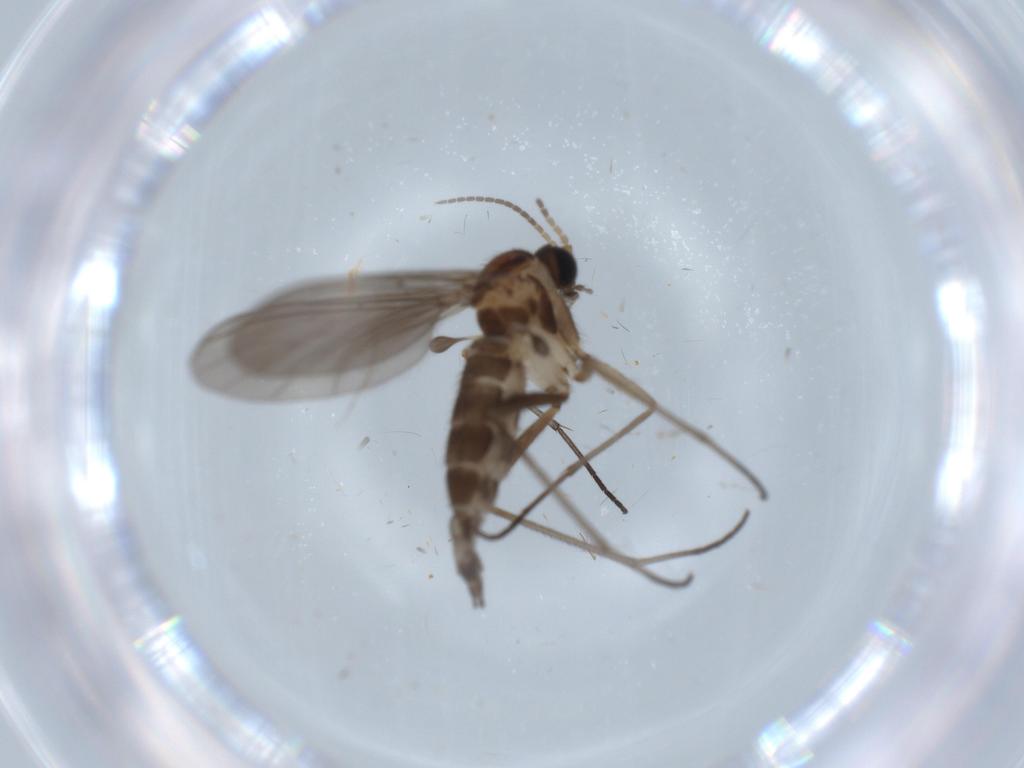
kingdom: Animalia
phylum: Arthropoda
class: Insecta
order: Diptera
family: Sciaridae
